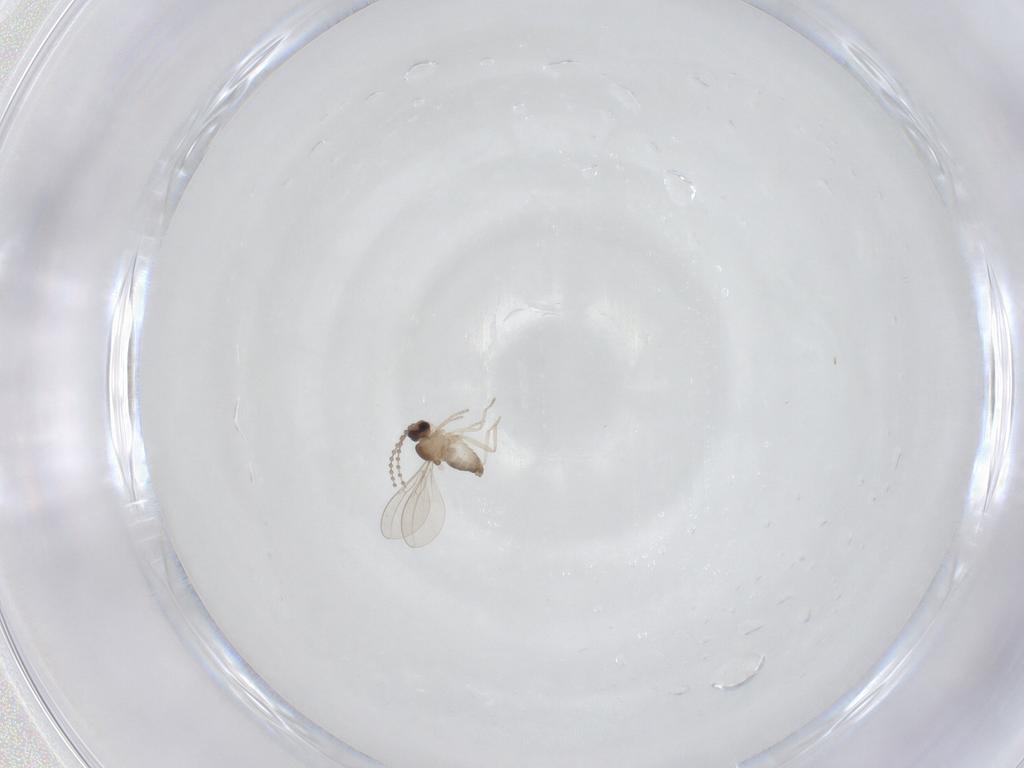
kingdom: Animalia
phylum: Arthropoda
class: Insecta
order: Diptera
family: Cecidomyiidae
